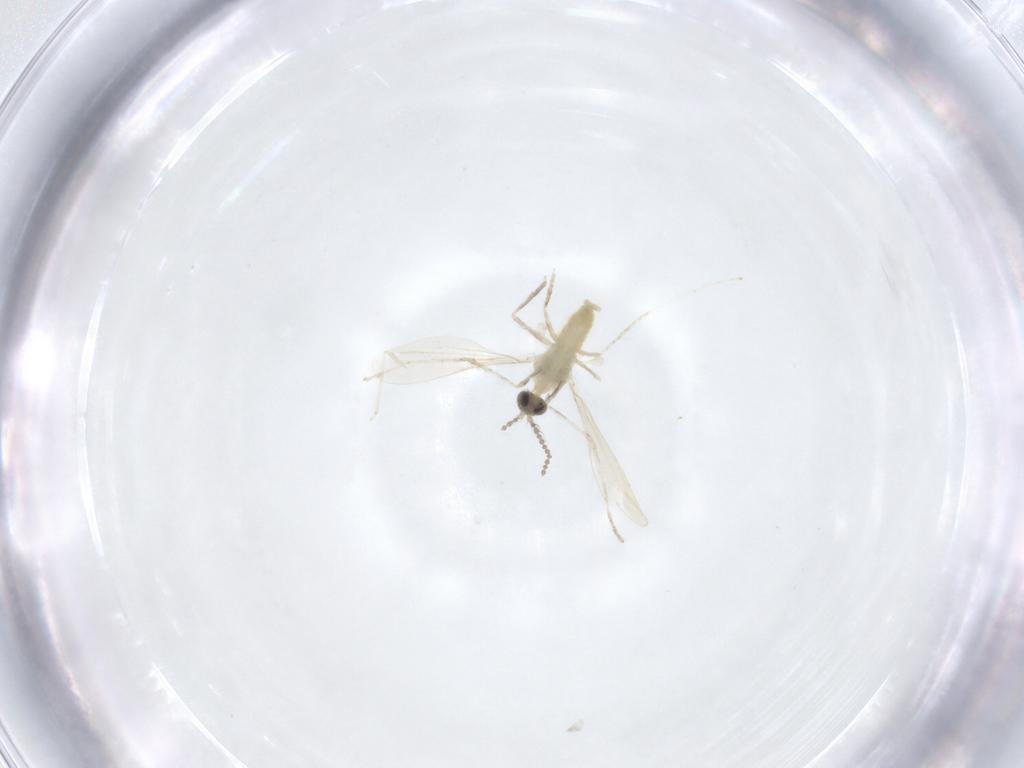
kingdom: Animalia
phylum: Arthropoda
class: Insecta
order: Diptera
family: Cecidomyiidae
